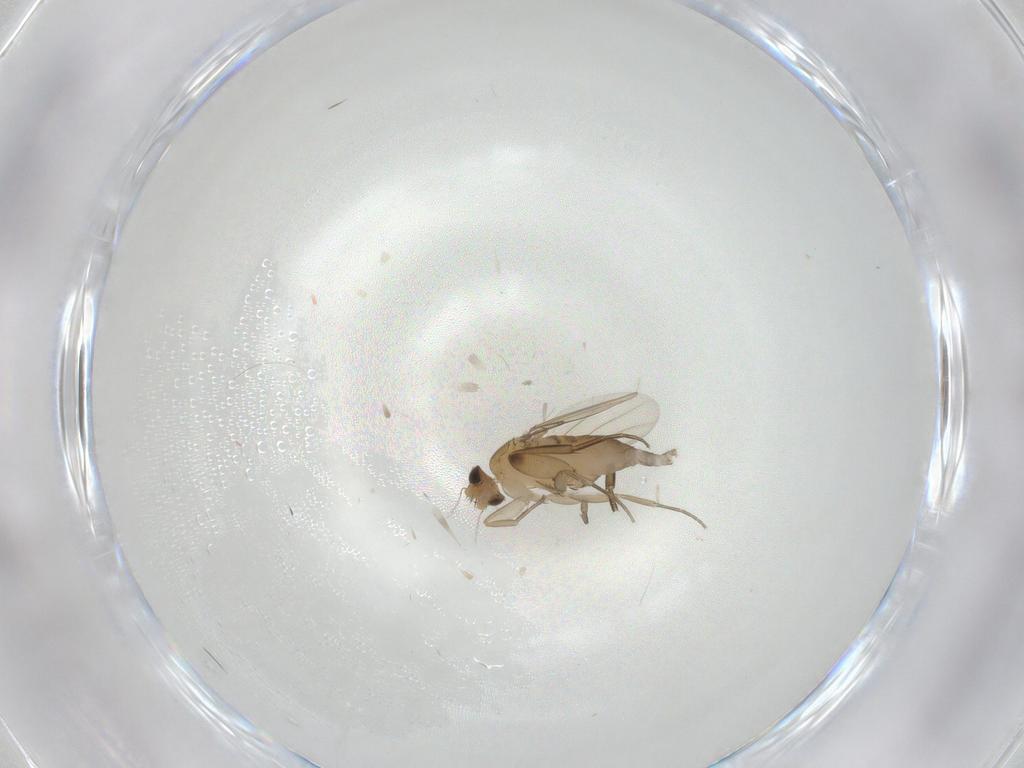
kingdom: Animalia
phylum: Arthropoda
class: Insecta
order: Diptera
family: Phoridae
